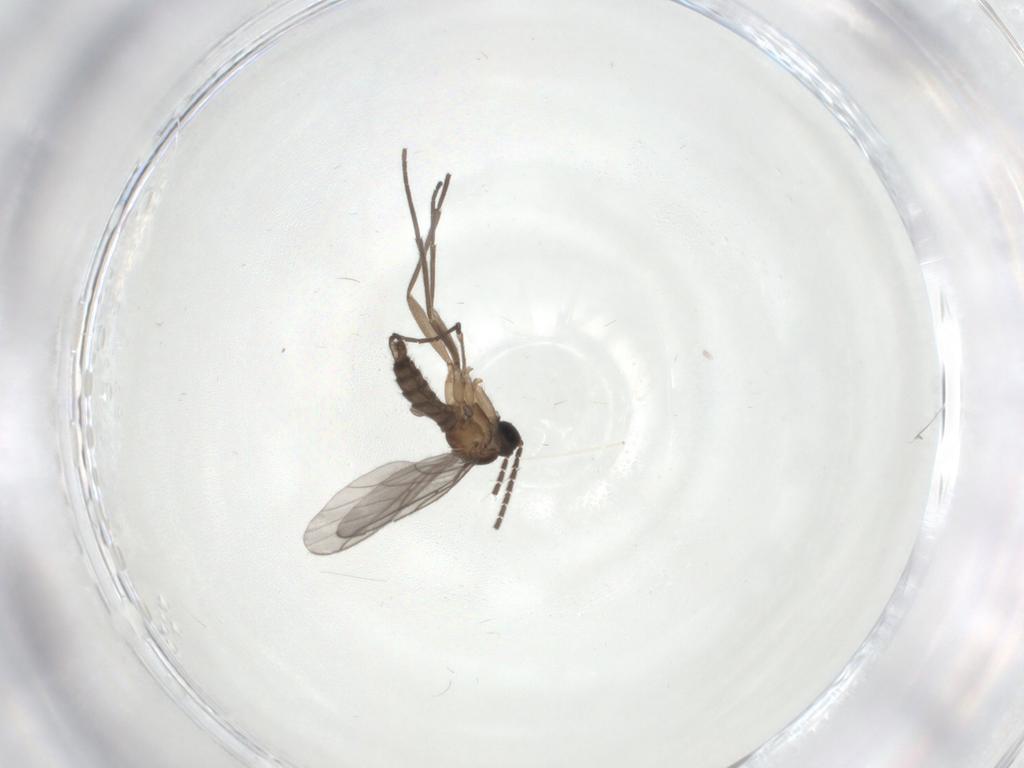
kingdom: Animalia
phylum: Arthropoda
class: Insecta
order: Diptera
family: Sciaridae
